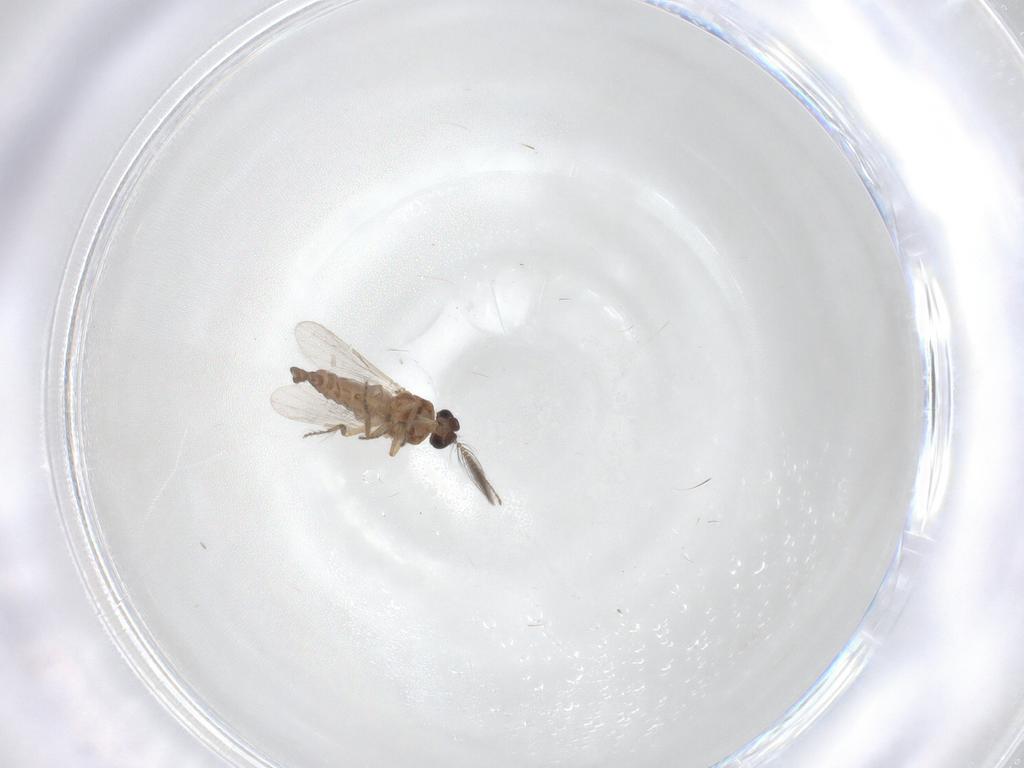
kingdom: Animalia
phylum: Arthropoda
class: Insecta
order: Diptera
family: Ceratopogonidae
